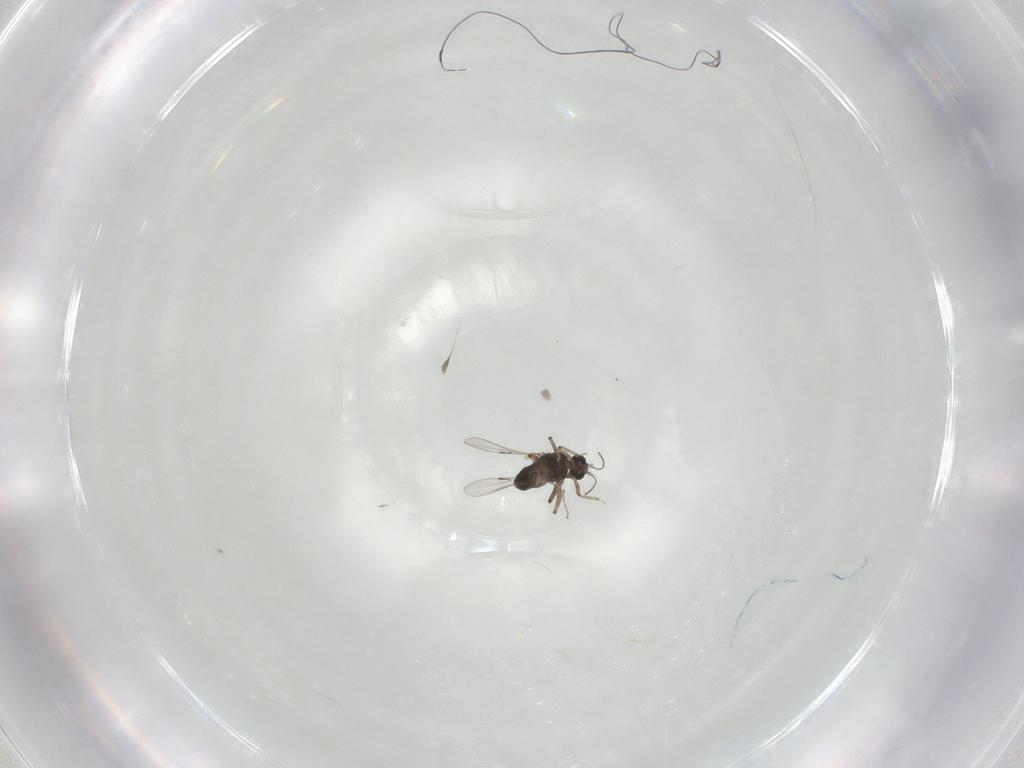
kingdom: Animalia
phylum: Arthropoda
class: Insecta
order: Diptera
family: Ceratopogonidae
